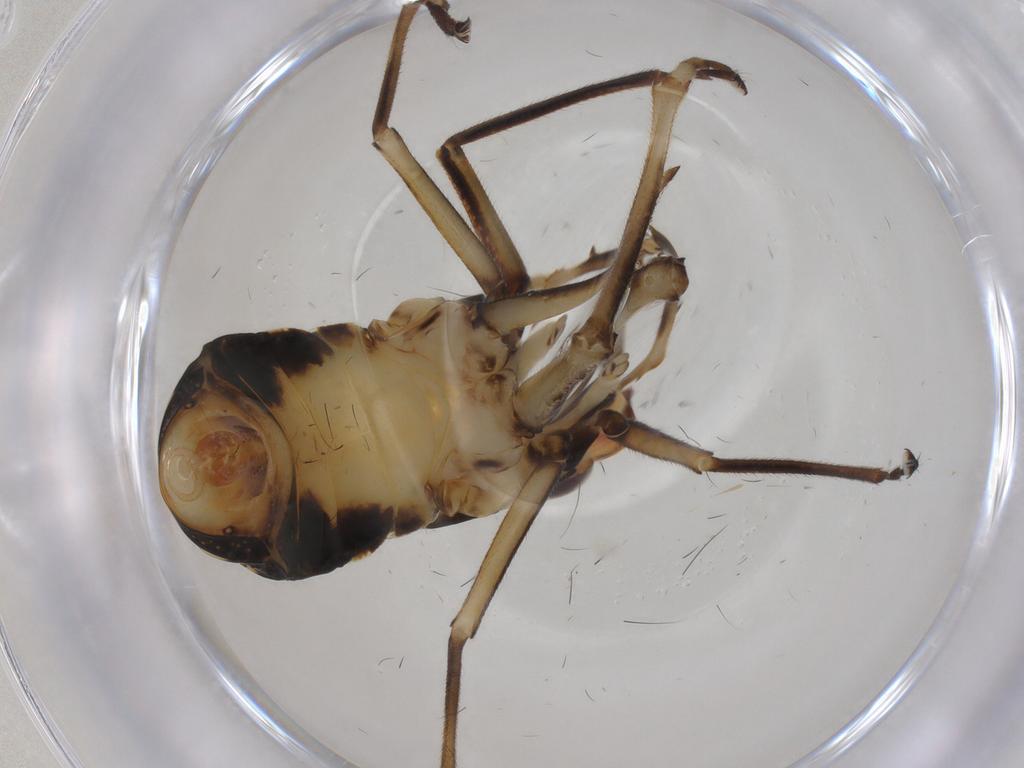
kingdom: Animalia
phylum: Arthropoda
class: Insecta
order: Hemiptera
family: Caliscelidae
